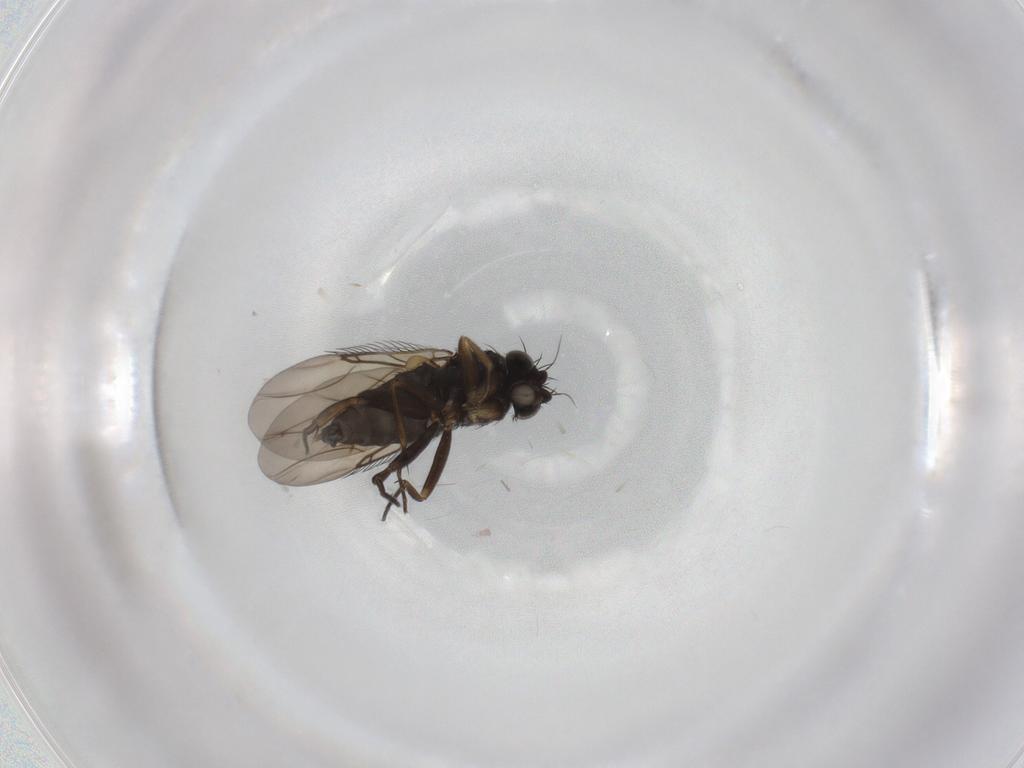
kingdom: Animalia
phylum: Arthropoda
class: Insecta
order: Diptera
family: Phoridae
